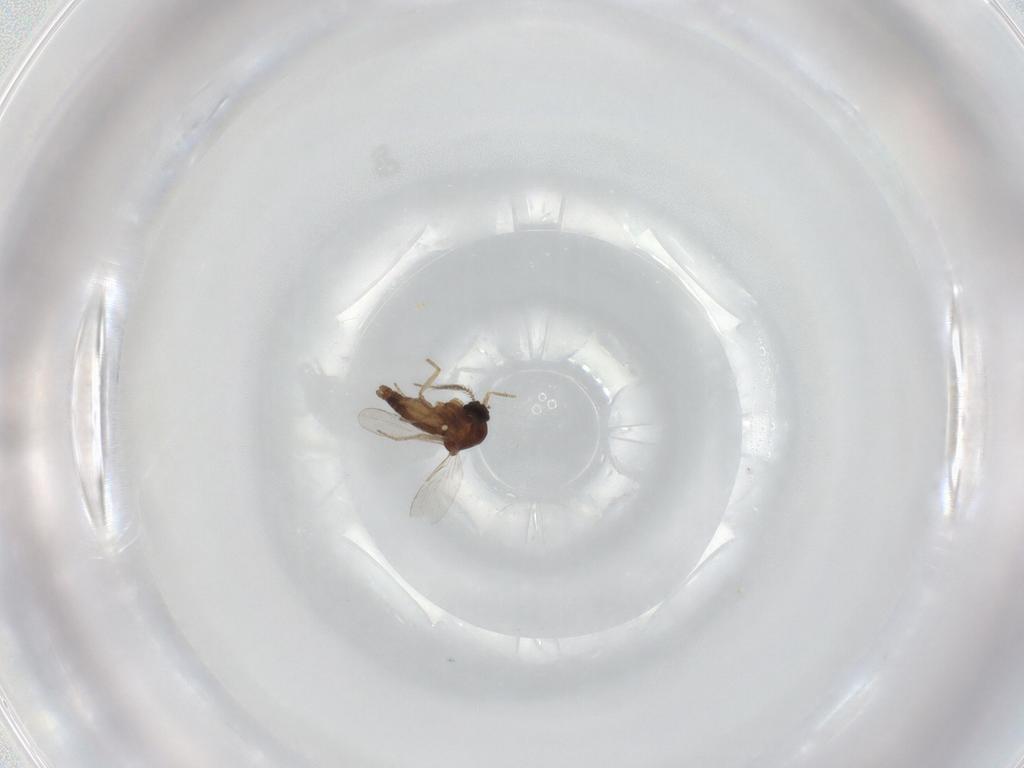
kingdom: Animalia
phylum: Arthropoda
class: Insecta
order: Diptera
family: Ceratopogonidae
